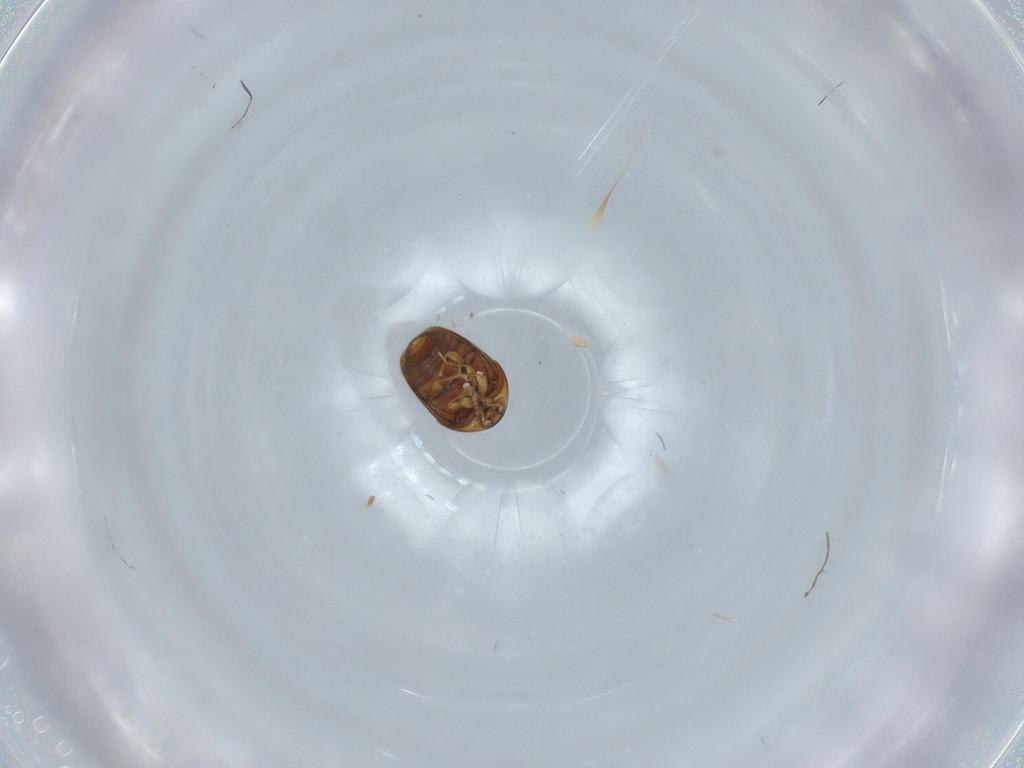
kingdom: Animalia
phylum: Arthropoda
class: Insecta
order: Coleoptera
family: Corylophidae
